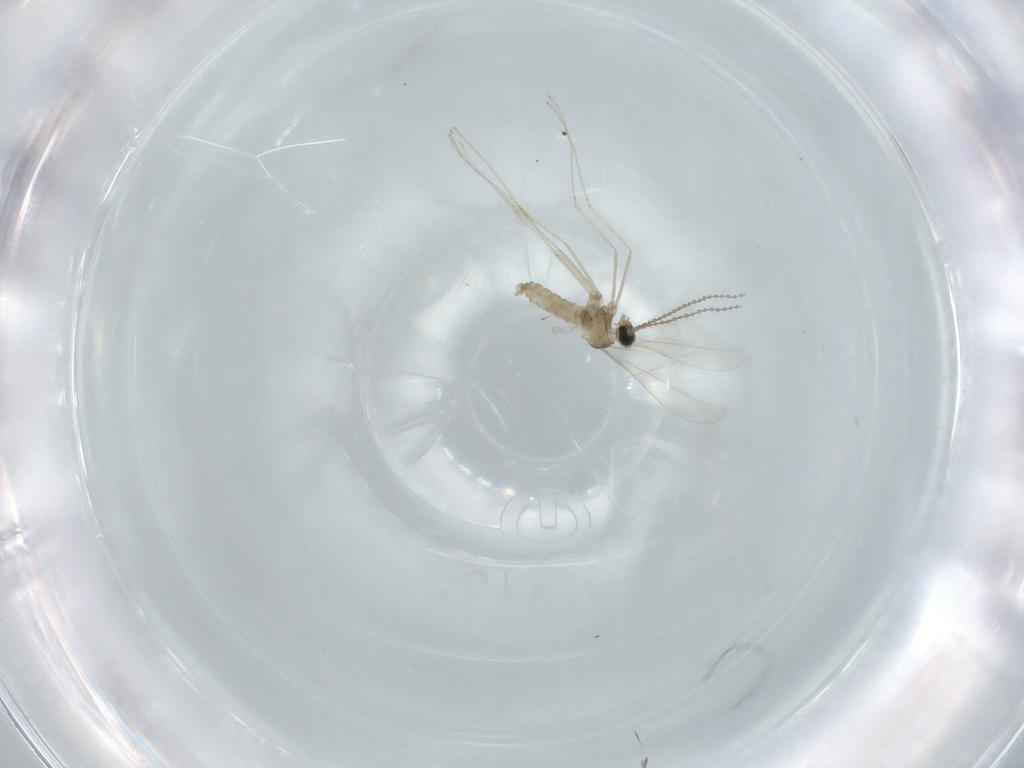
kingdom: Animalia
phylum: Arthropoda
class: Insecta
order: Diptera
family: Cecidomyiidae
